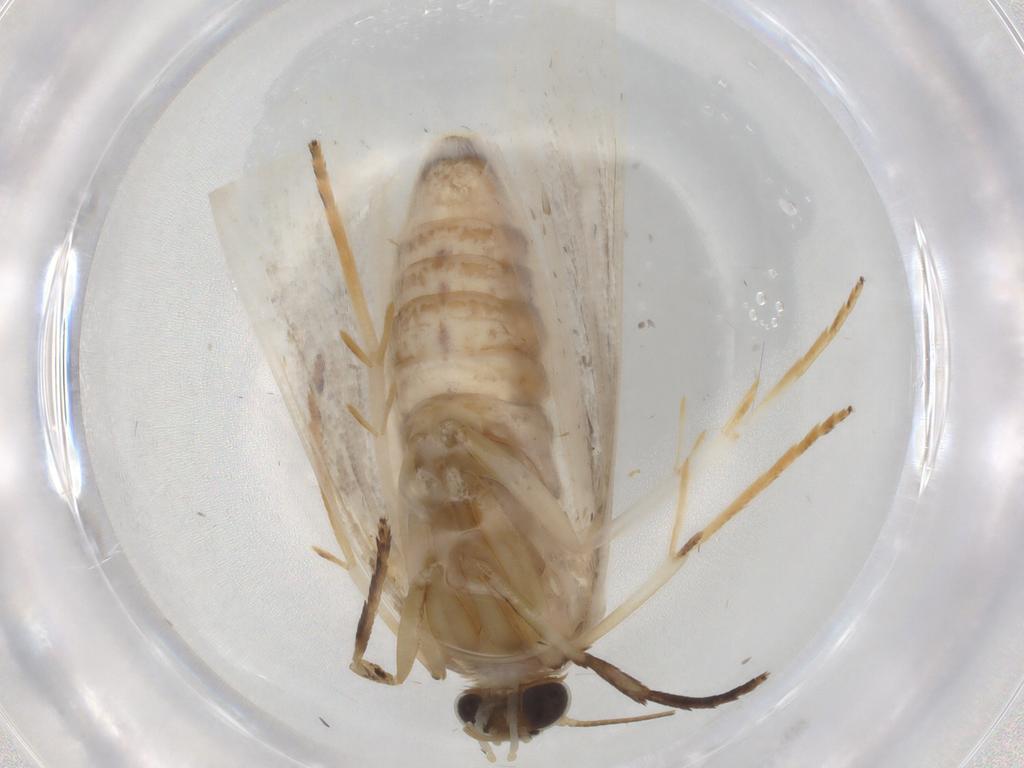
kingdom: Animalia
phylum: Arthropoda
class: Insecta
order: Lepidoptera
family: Crambidae
